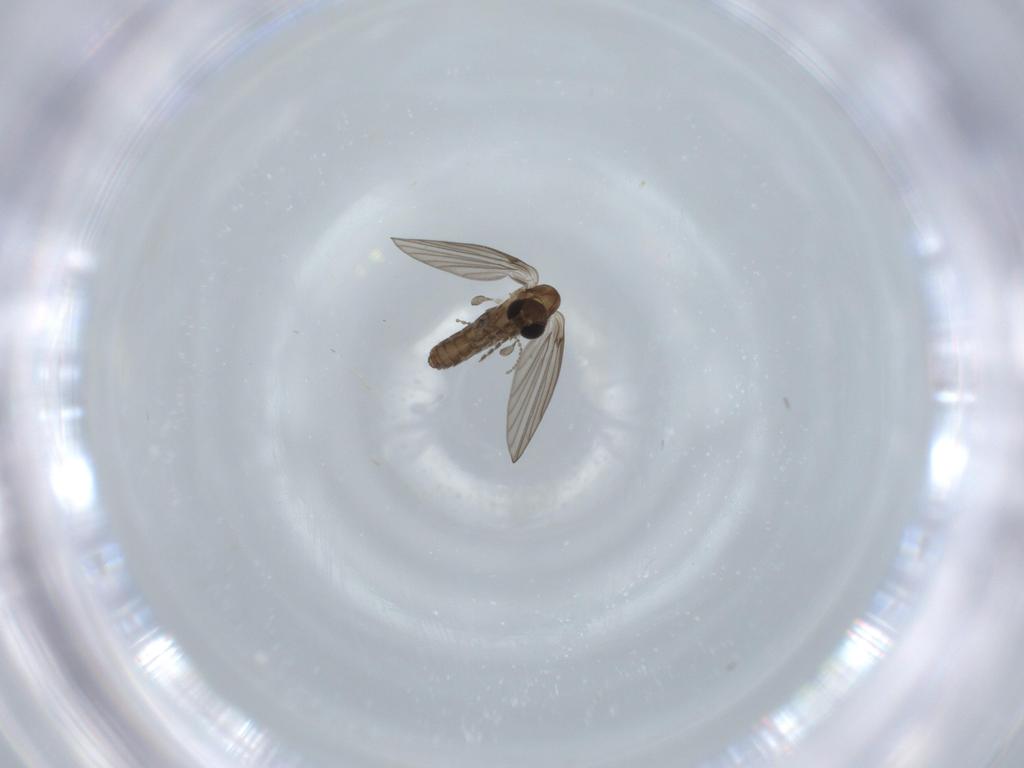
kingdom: Animalia
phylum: Arthropoda
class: Insecta
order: Diptera
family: Psychodidae
